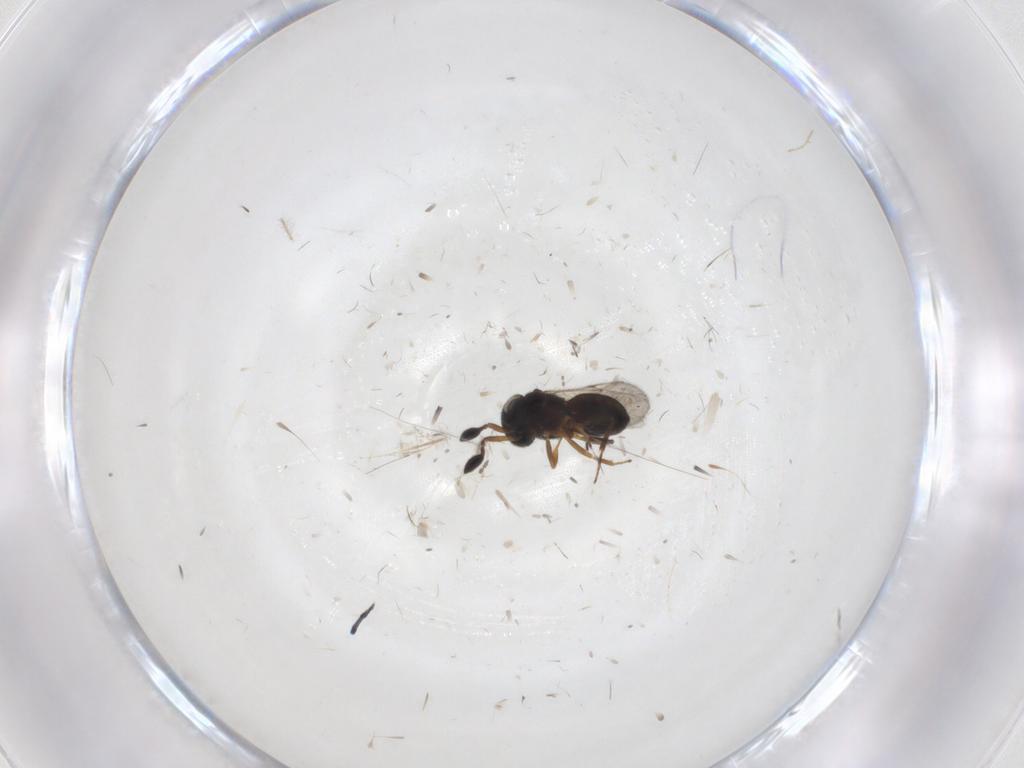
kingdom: Animalia
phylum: Arthropoda
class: Insecta
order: Hymenoptera
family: Scelionidae
